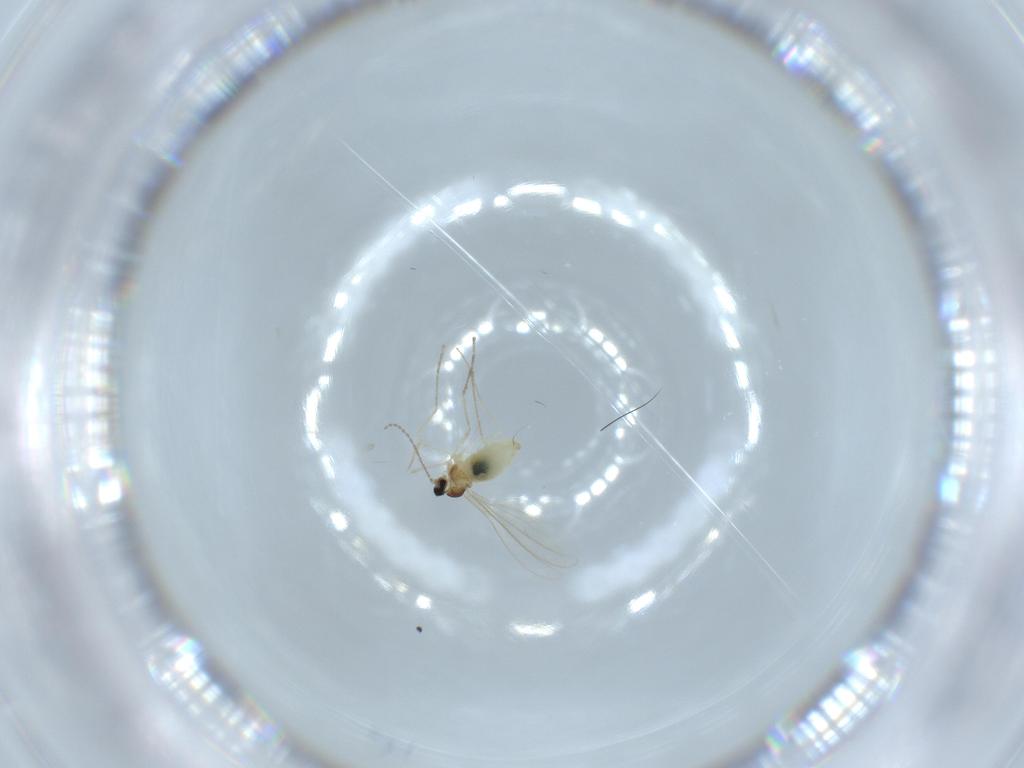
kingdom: Animalia
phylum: Arthropoda
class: Insecta
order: Diptera
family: Cecidomyiidae
